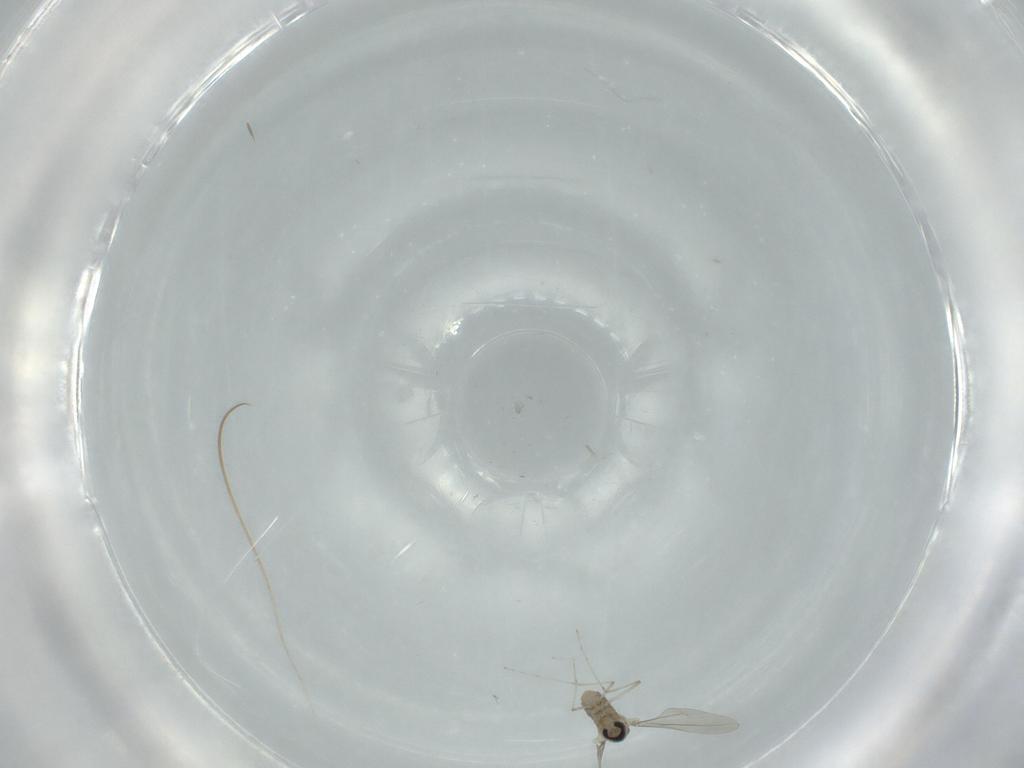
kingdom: Animalia
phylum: Arthropoda
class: Insecta
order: Diptera
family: Cecidomyiidae
